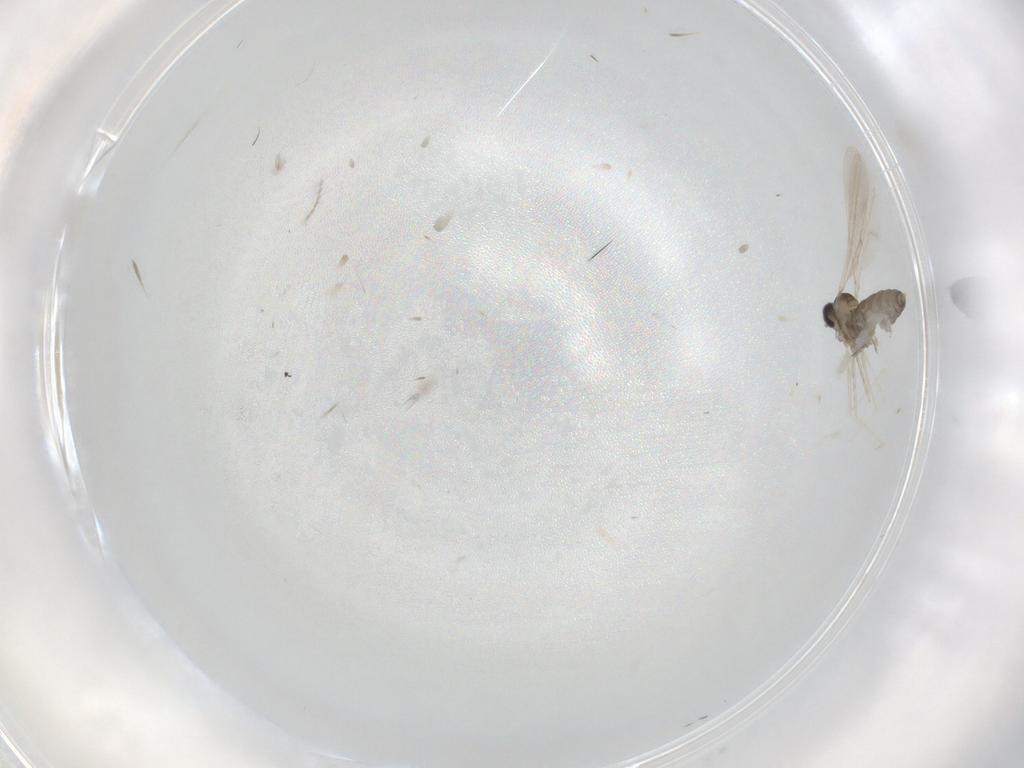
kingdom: Animalia
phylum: Arthropoda
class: Insecta
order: Diptera
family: Cecidomyiidae
